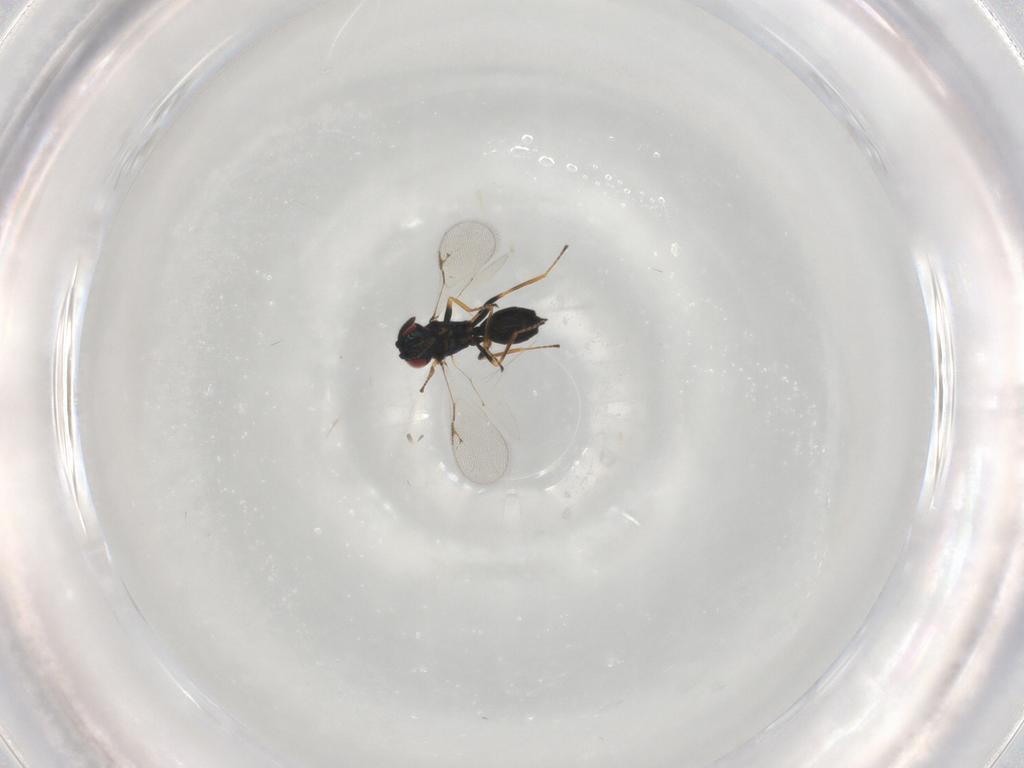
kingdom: Animalia
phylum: Arthropoda
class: Insecta
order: Hymenoptera
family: Chalcidoidea_incertae_sedis
